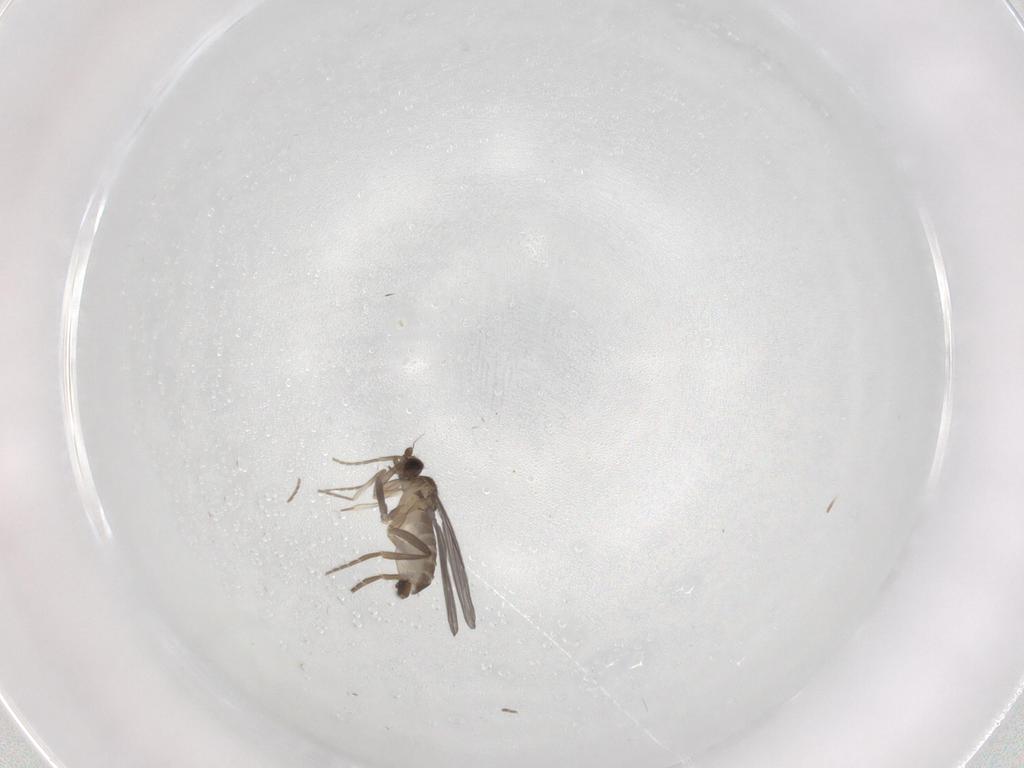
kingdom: Animalia
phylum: Arthropoda
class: Insecta
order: Diptera
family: Phoridae
